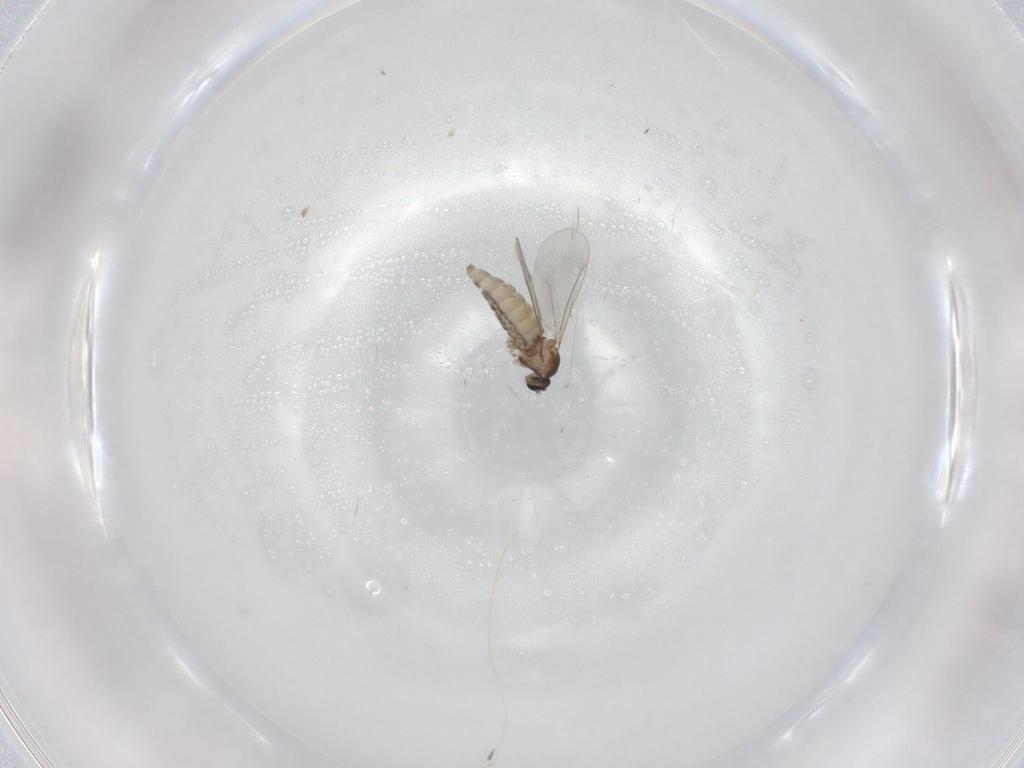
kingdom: Animalia
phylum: Arthropoda
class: Insecta
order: Diptera
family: Cecidomyiidae
